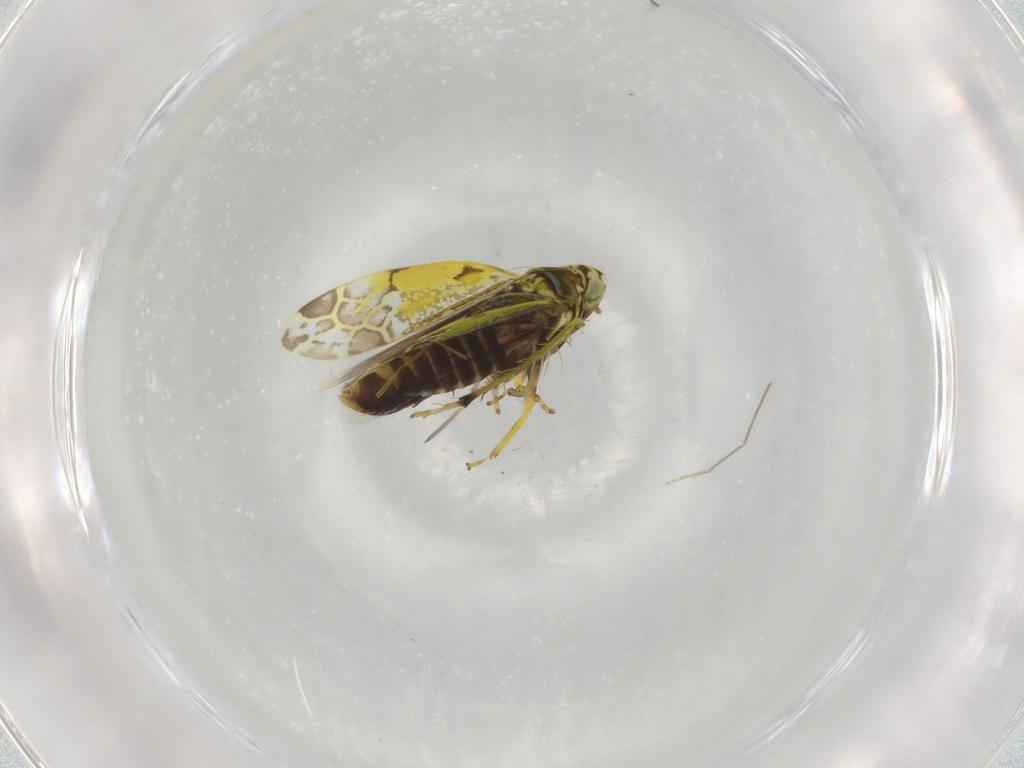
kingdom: Animalia
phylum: Arthropoda
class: Insecta
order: Hemiptera
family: Cicadellidae
